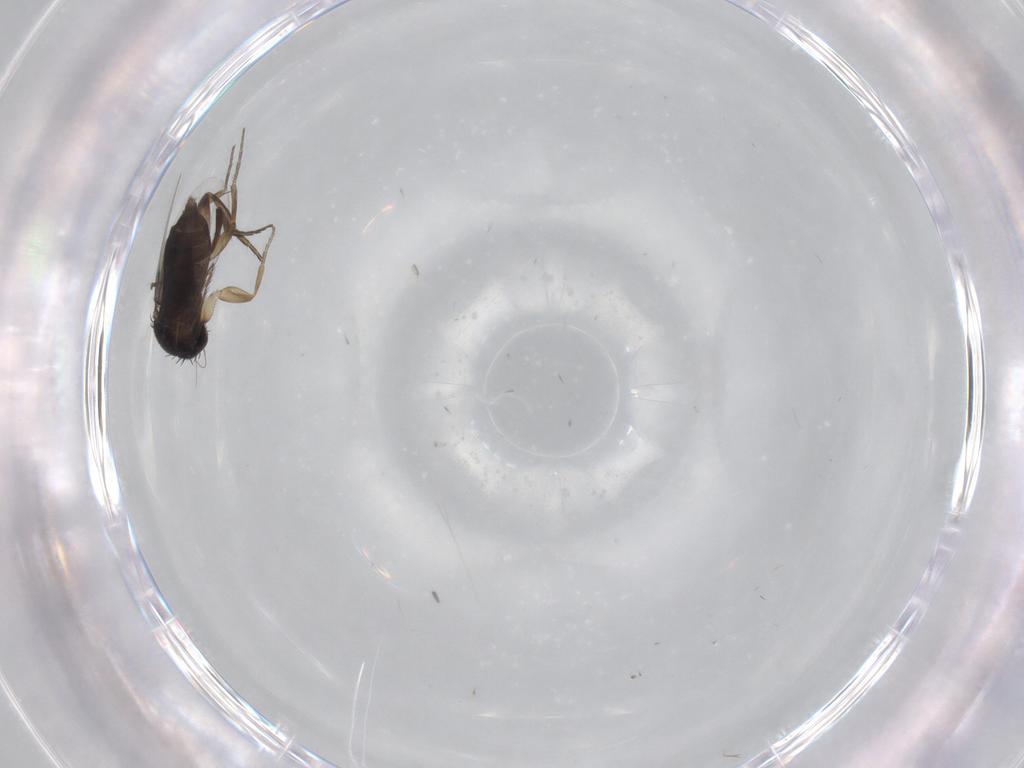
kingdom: Animalia
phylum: Arthropoda
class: Insecta
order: Diptera
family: Phoridae
